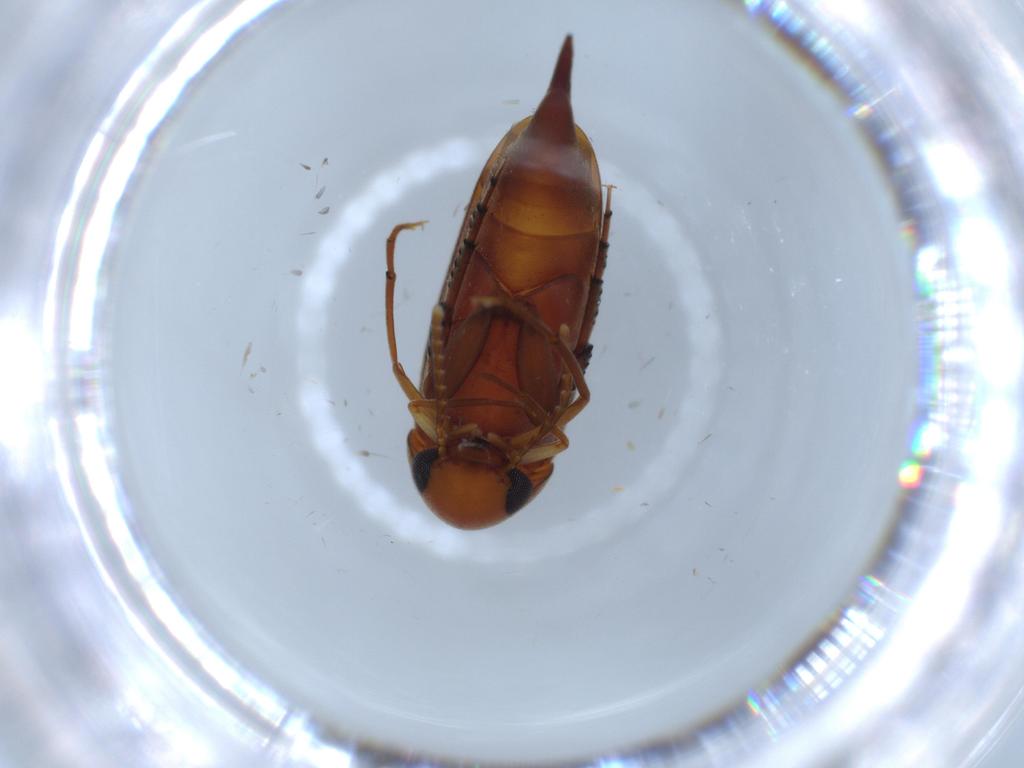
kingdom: Animalia
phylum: Arthropoda
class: Insecta
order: Coleoptera
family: Mordellidae
